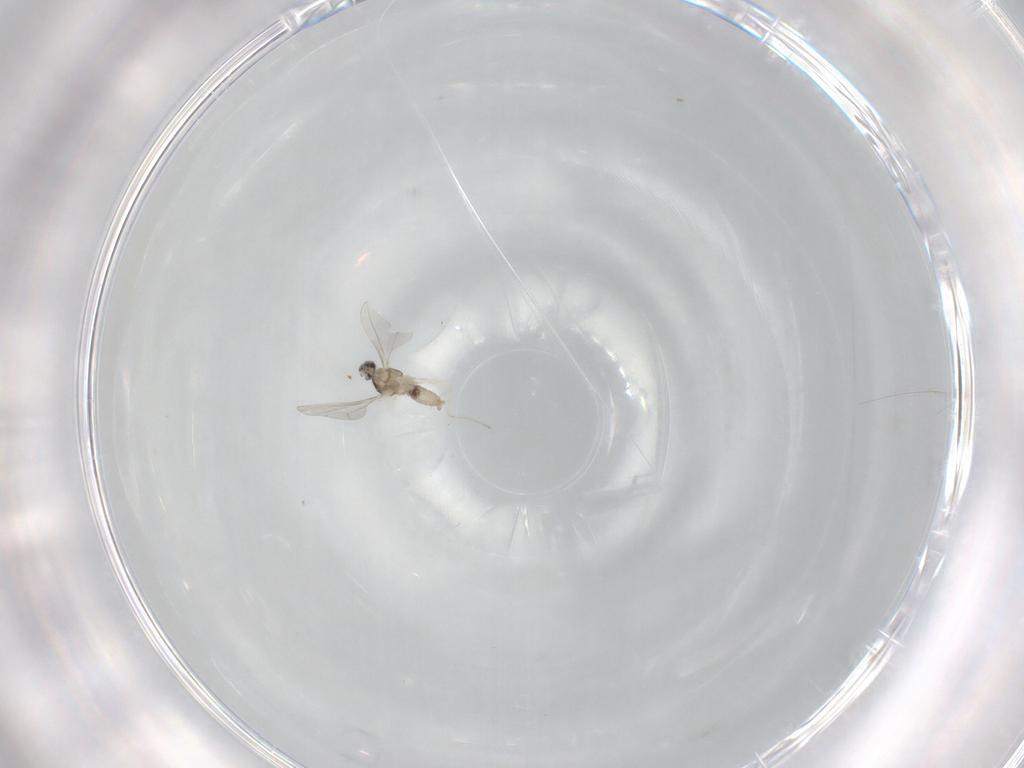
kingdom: Animalia
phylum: Arthropoda
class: Insecta
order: Diptera
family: Cecidomyiidae
